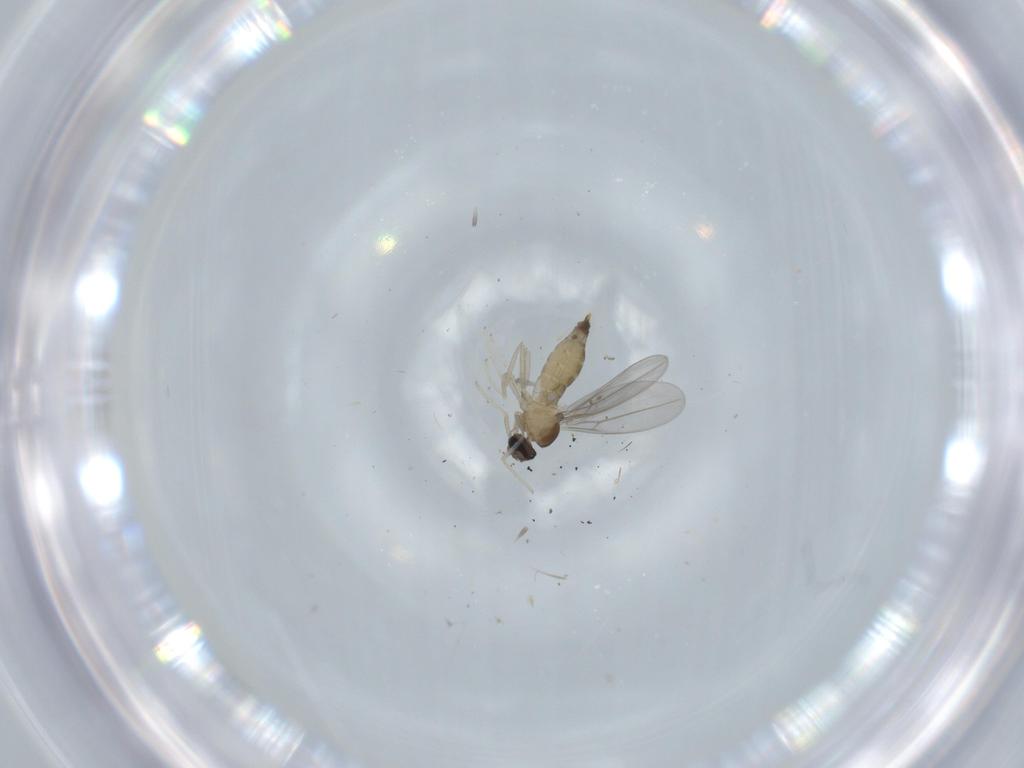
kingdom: Animalia
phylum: Arthropoda
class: Insecta
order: Diptera
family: Cecidomyiidae
